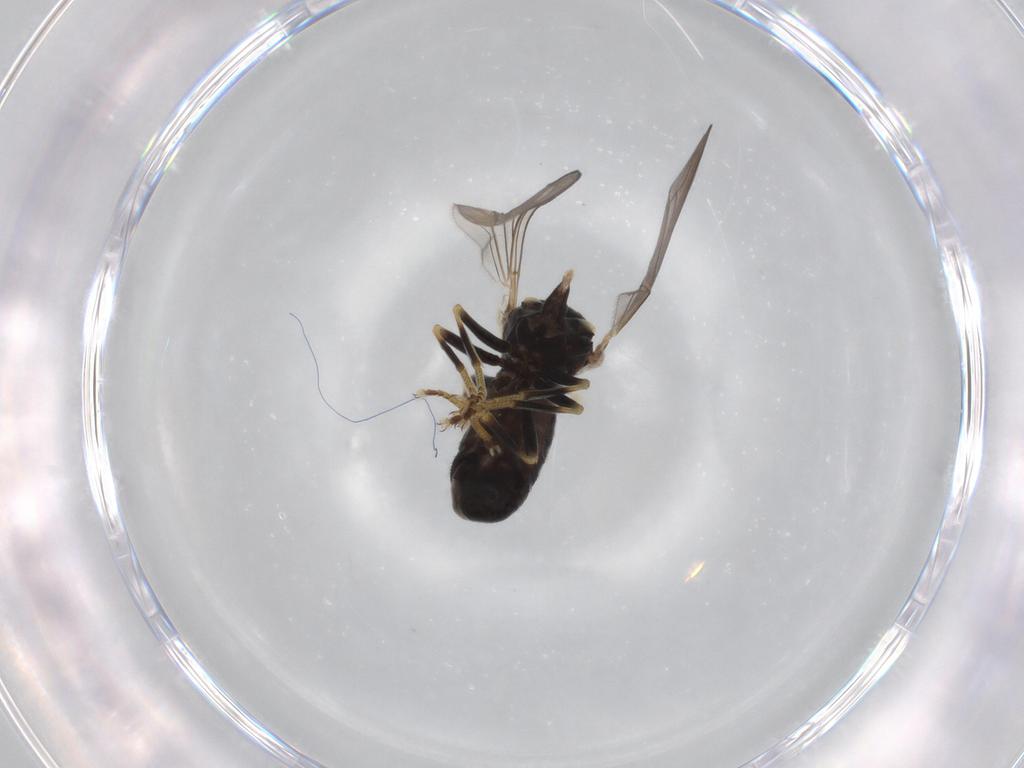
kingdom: Animalia
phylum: Arthropoda
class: Insecta
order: Diptera
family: Pipunculidae
